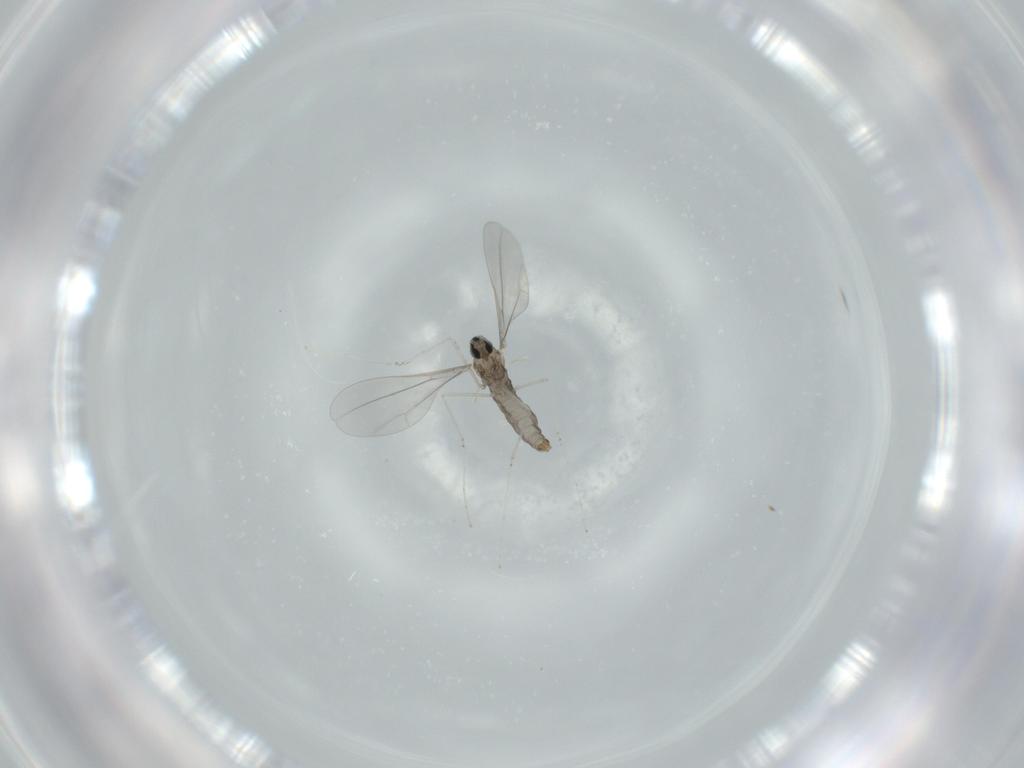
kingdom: Animalia
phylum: Arthropoda
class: Insecta
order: Diptera
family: Cecidomyiidae
